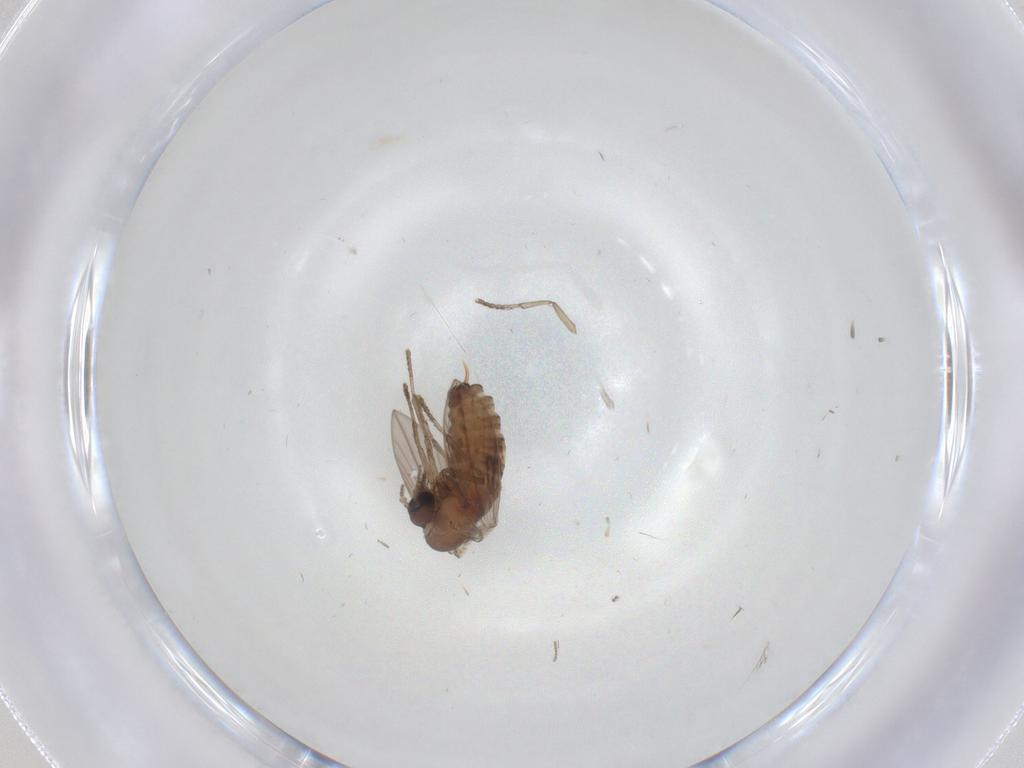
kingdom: Animalia
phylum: Arthropoda
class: Insecta
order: Diptera
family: Psychodidae
